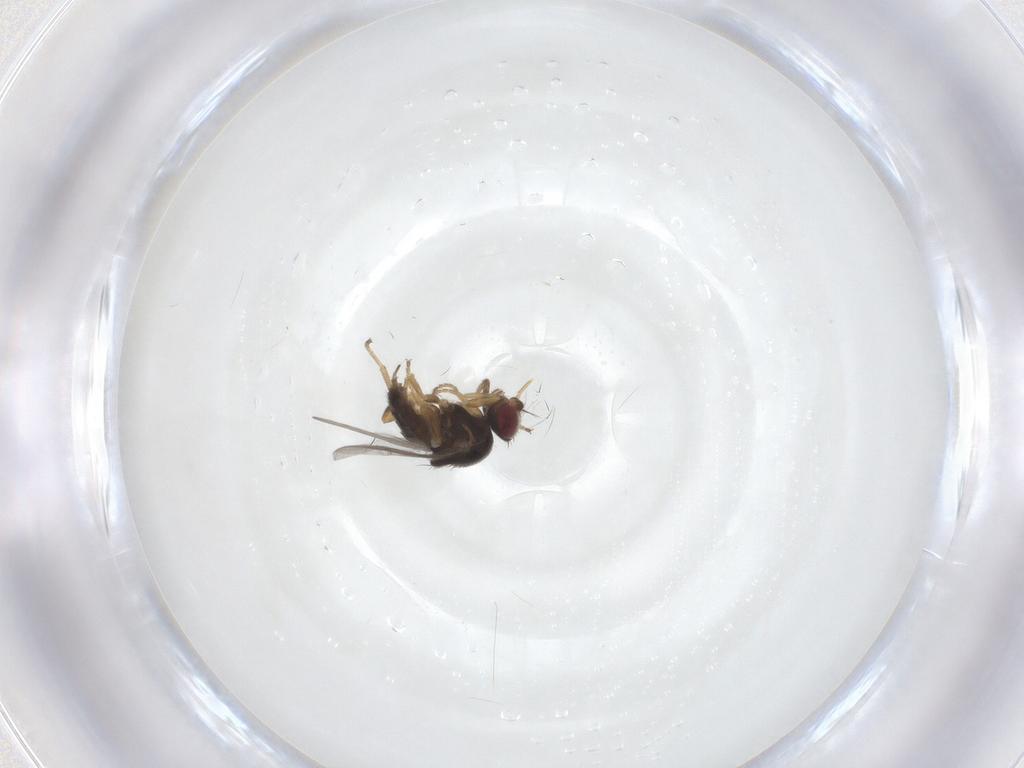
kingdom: Animalia
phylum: Arthropoda
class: Insecta
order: Diptera
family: Chloropidae
